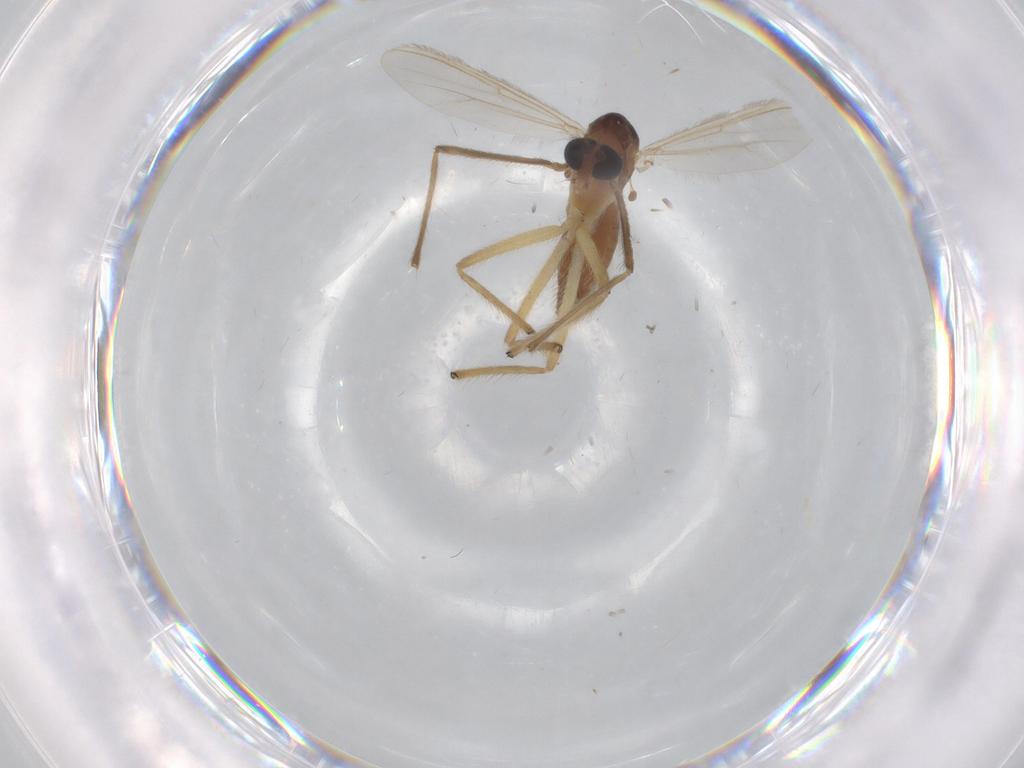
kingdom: Animalia
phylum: Arthropoda
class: Insecta
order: Diptera
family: Chironomidae
